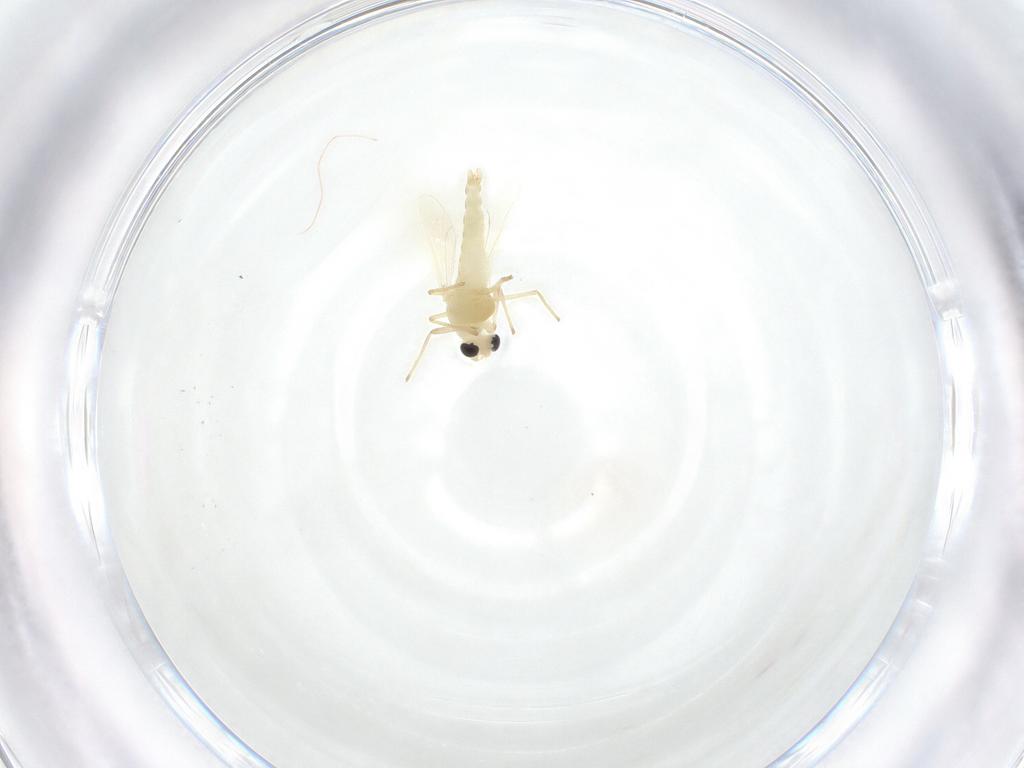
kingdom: Animalia
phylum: Arthropoda
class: Insecta
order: Diptera
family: Chironomidae
